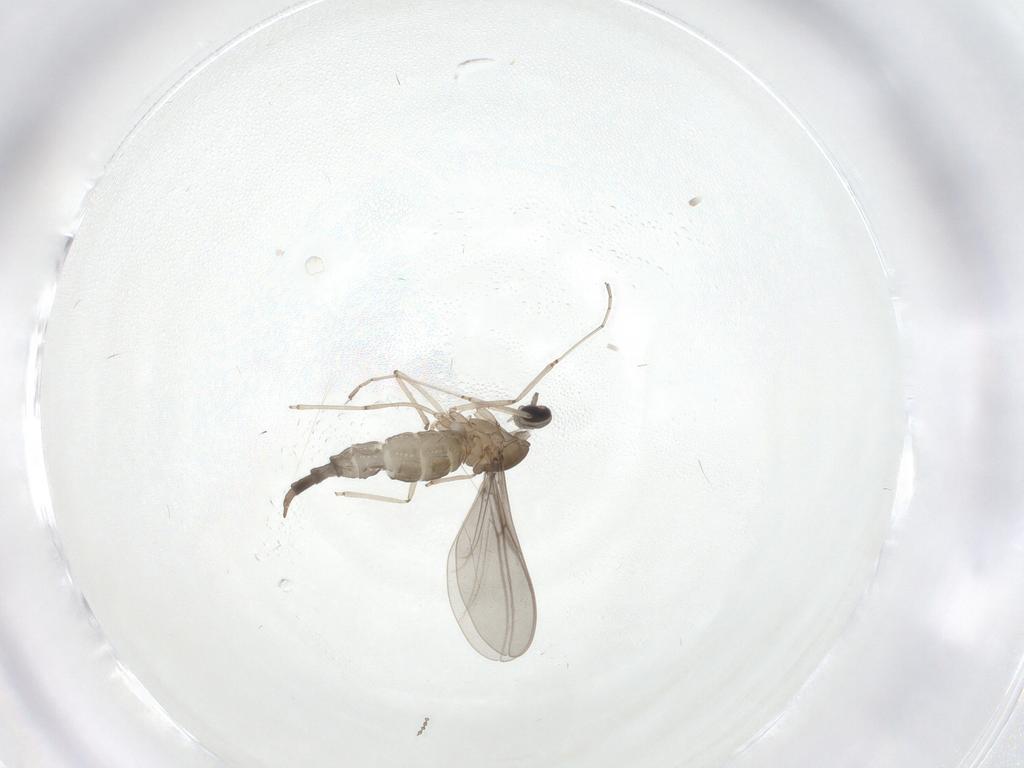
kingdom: Animalia
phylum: Arthropoda
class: Insecta
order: Diptera
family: Cecidomyiidae
